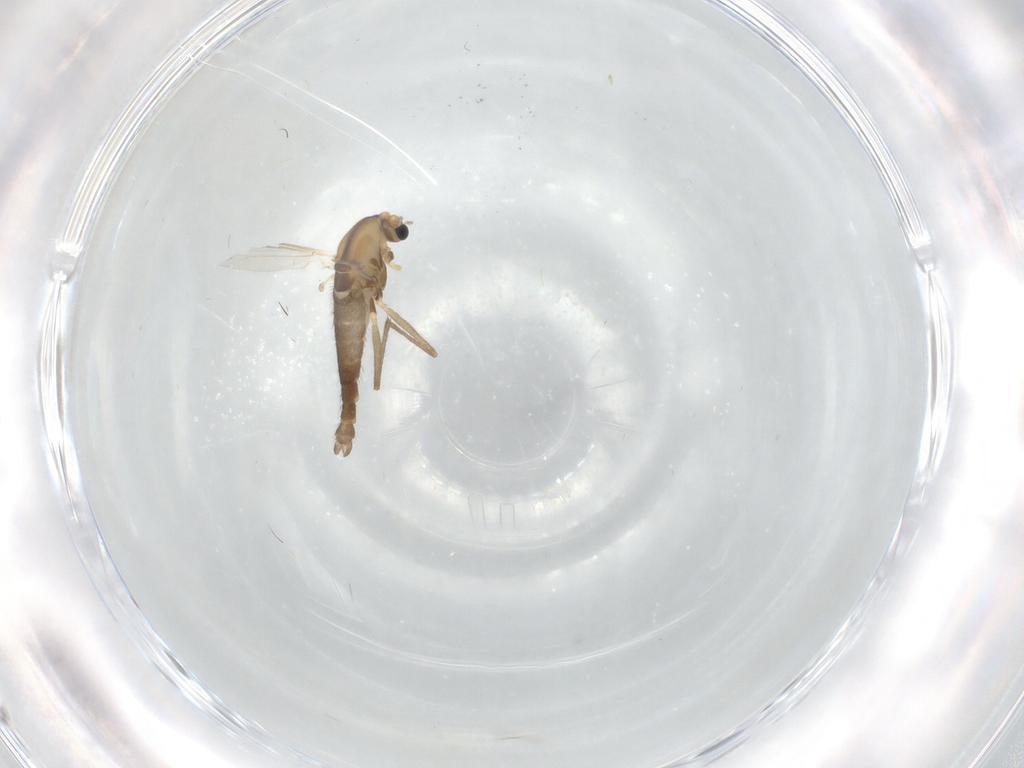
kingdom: Animalia
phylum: Arthropoda
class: Insecta
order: Diptera
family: Chironomidae
